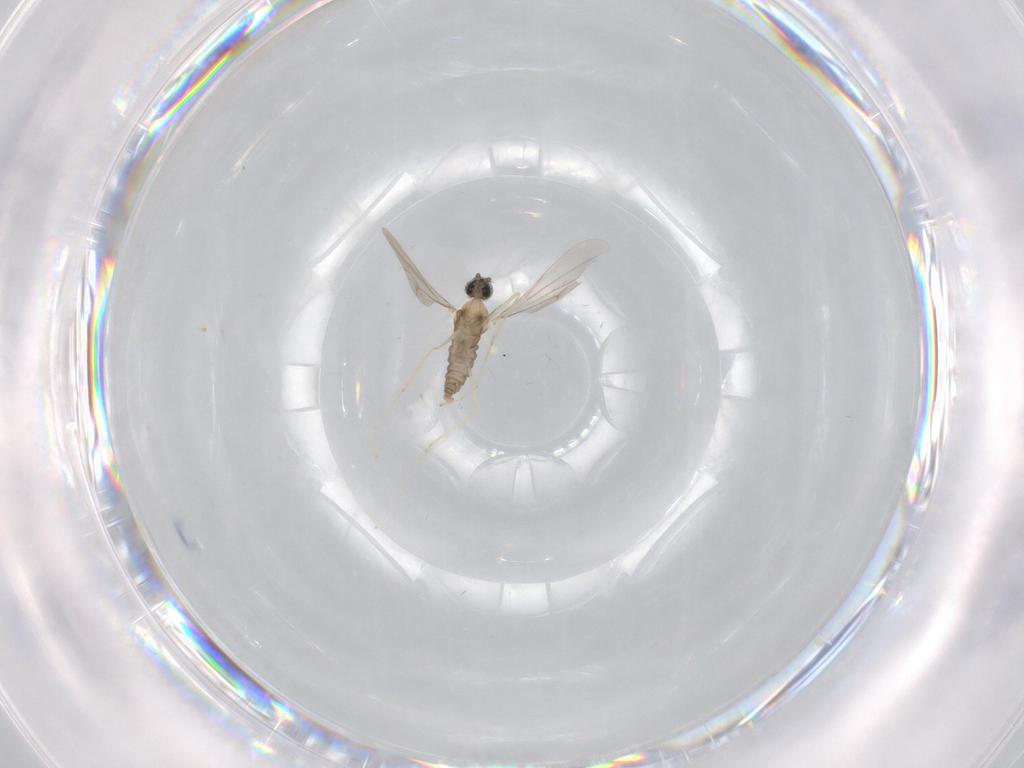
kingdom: Animalia
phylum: Arthropoda
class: Insecta
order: Diptera
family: Cecidomyiidae
